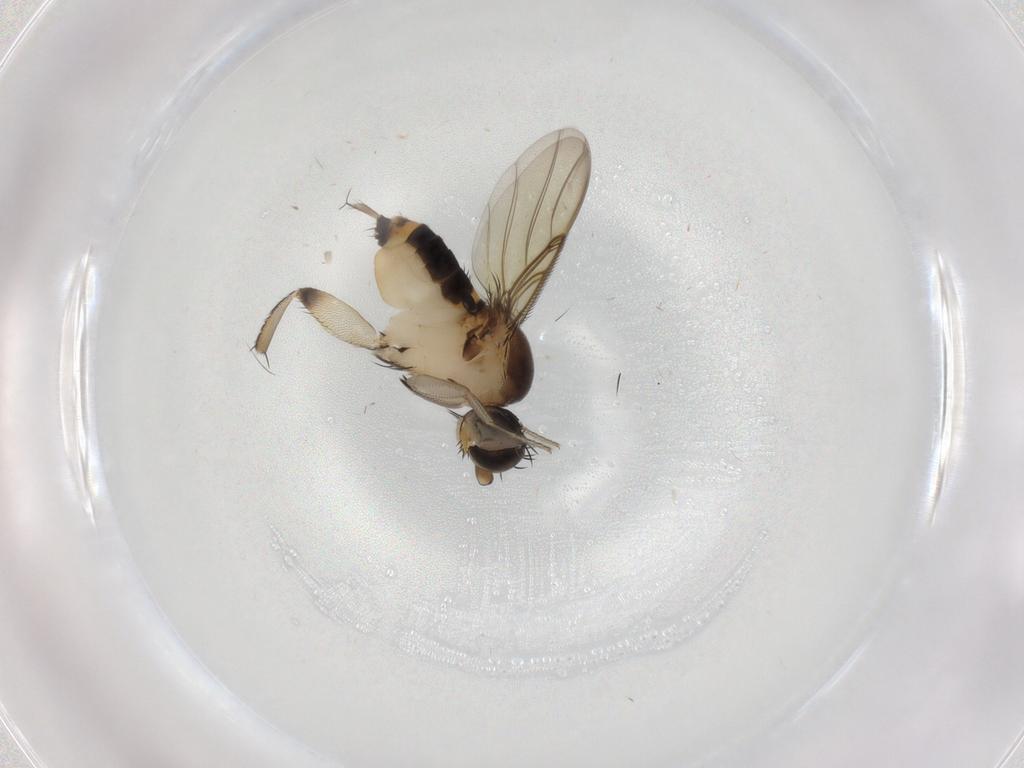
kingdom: Animalia
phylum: Arthropoda
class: Insecta
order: Diptera
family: Phoridae
